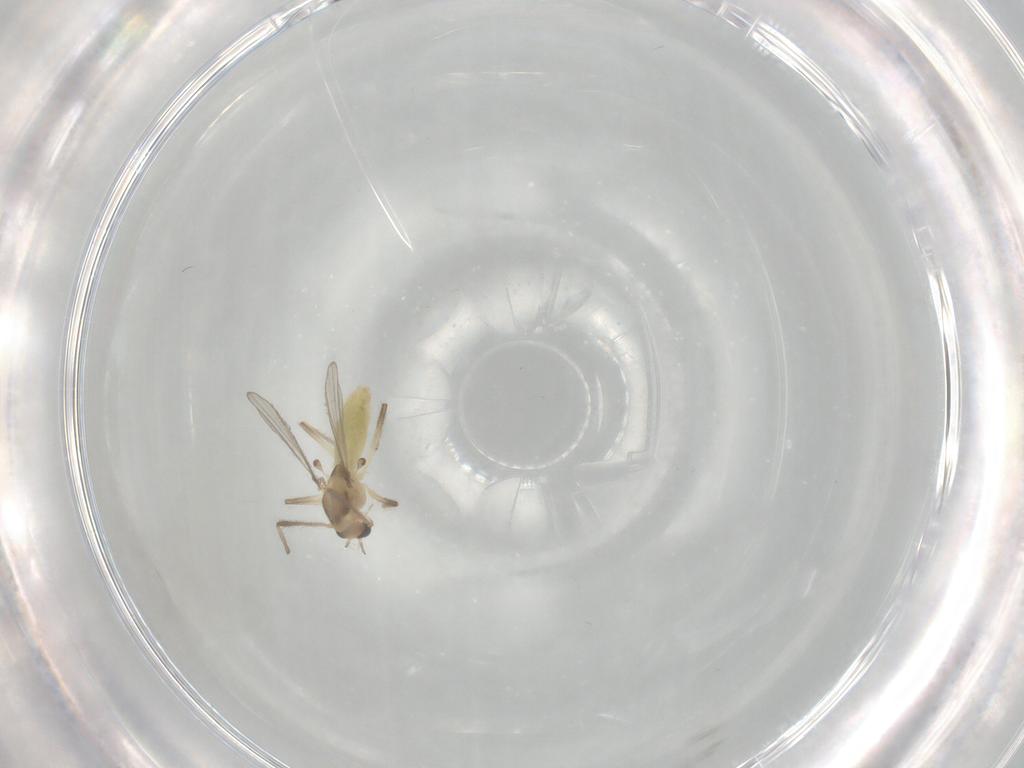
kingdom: Animalia
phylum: Arthropoda
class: Insecta
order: Diptera
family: Chironomidae
